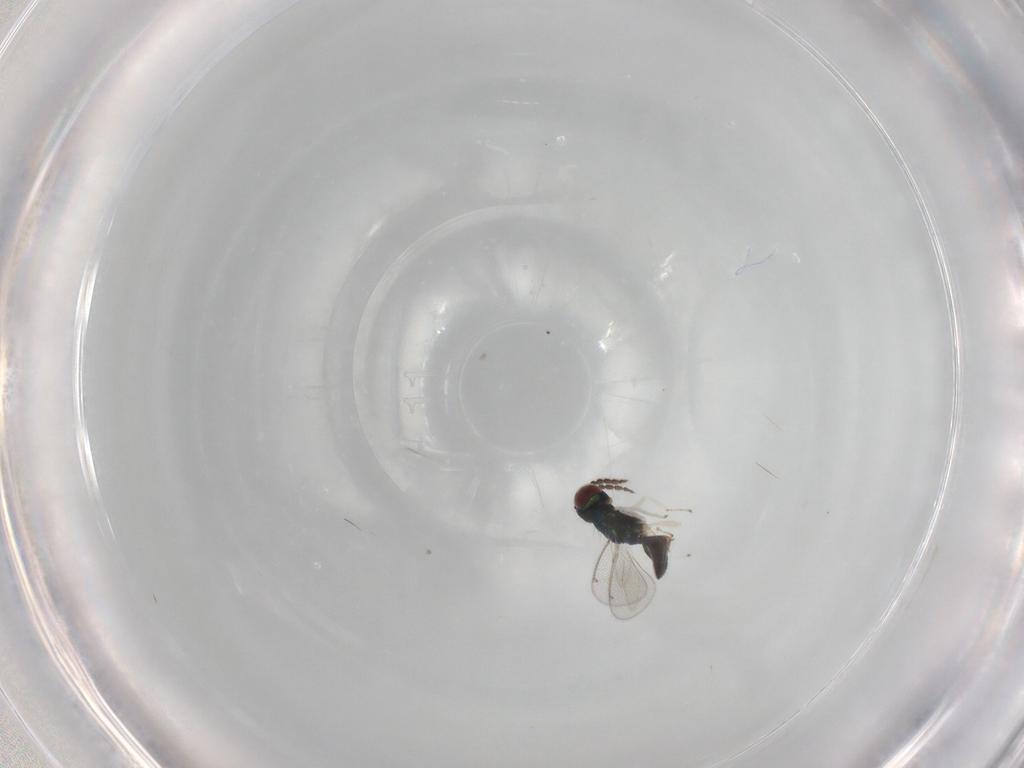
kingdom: Animalia
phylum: Arthropoda
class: Insecta
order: Hymenoptera
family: Eulophidae
